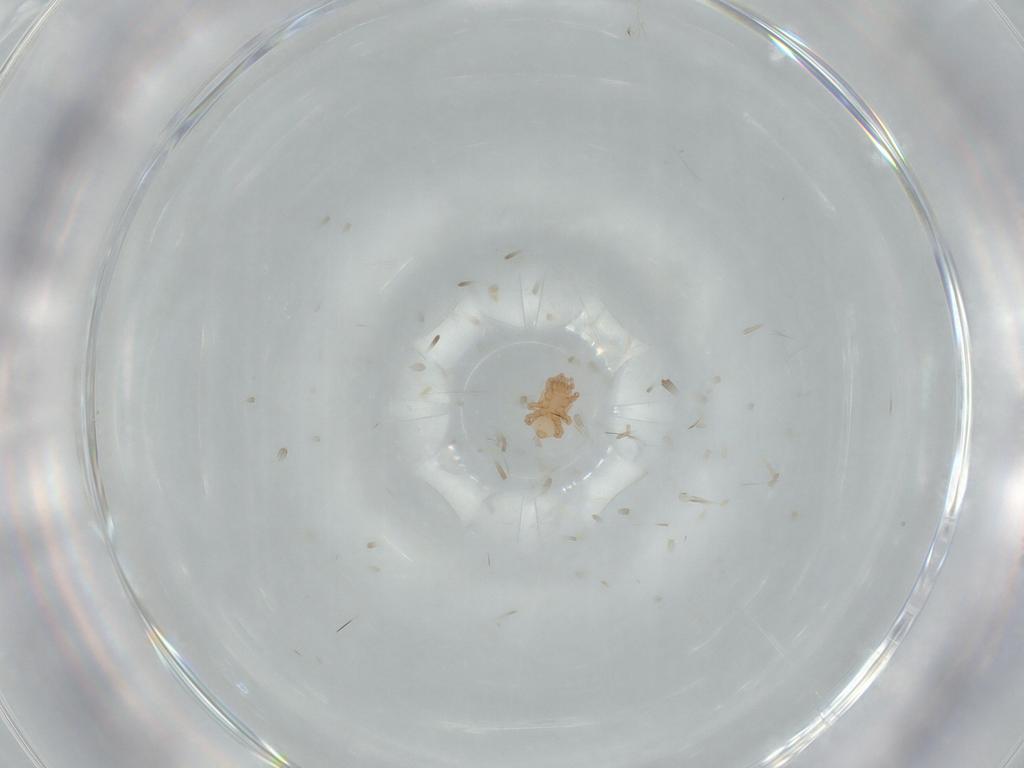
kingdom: Animalia
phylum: Arthropoda
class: Arachnida
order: Mesostigmata
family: Halolaelapidae
